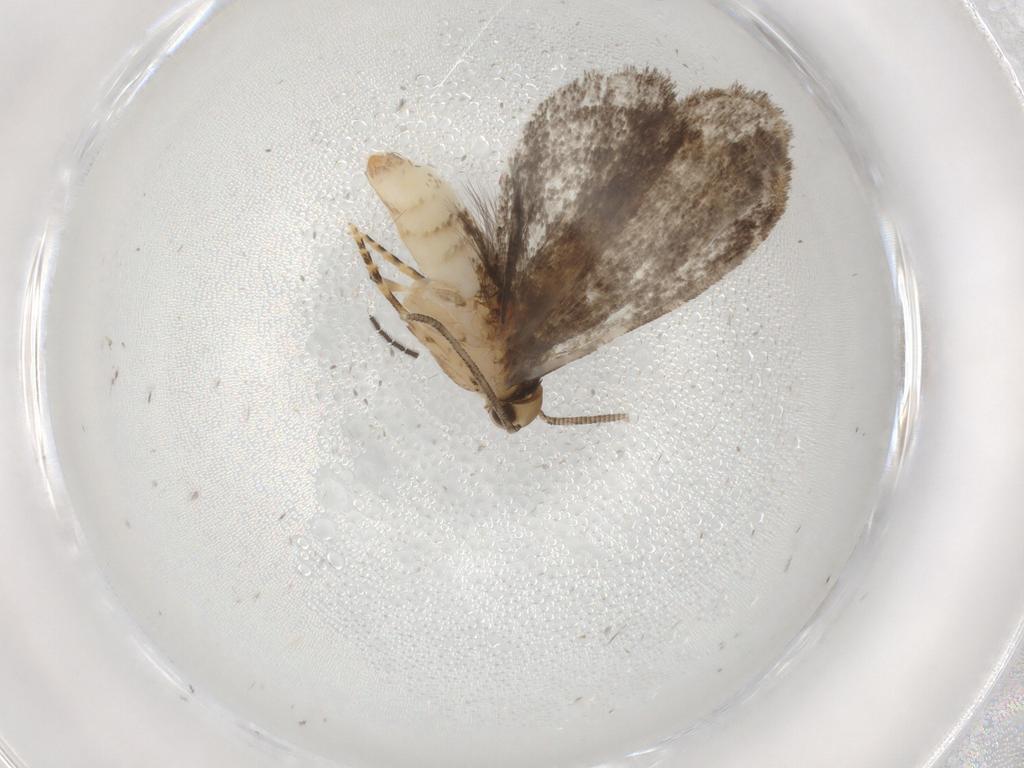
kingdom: Animalia
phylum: Arthropoda
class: Insecta
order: Lepidoptera
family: Dryadaulidae
